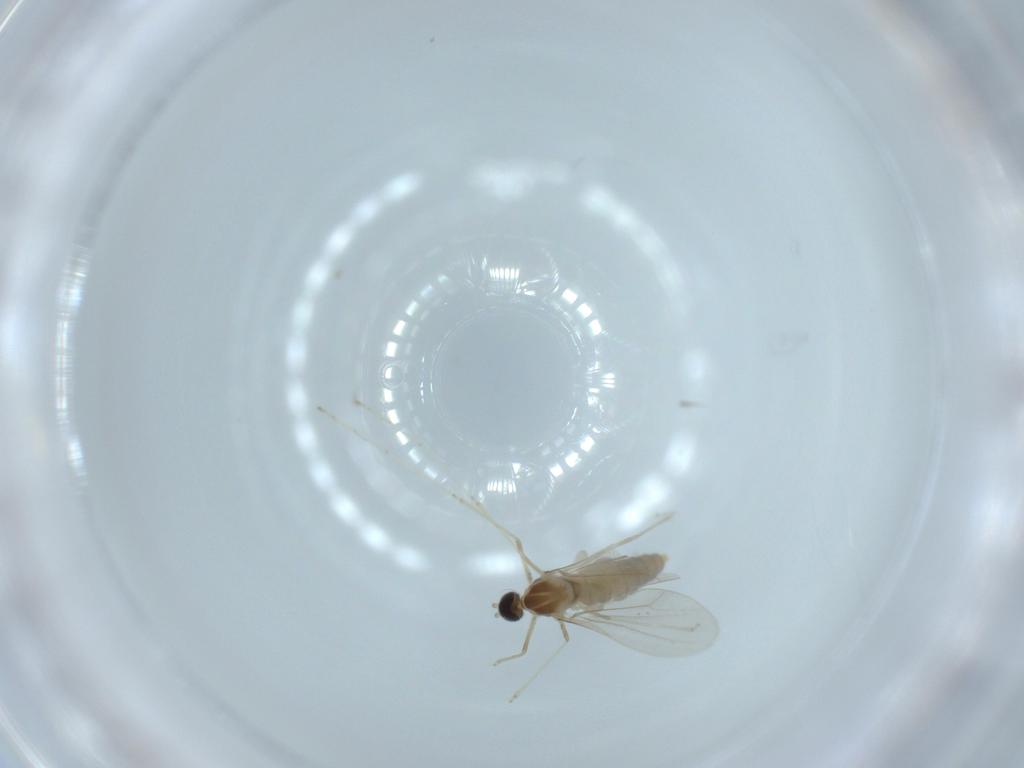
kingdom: Animalia
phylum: Arthropoda
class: Insecta
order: Diptera
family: Cecidomyiidae
